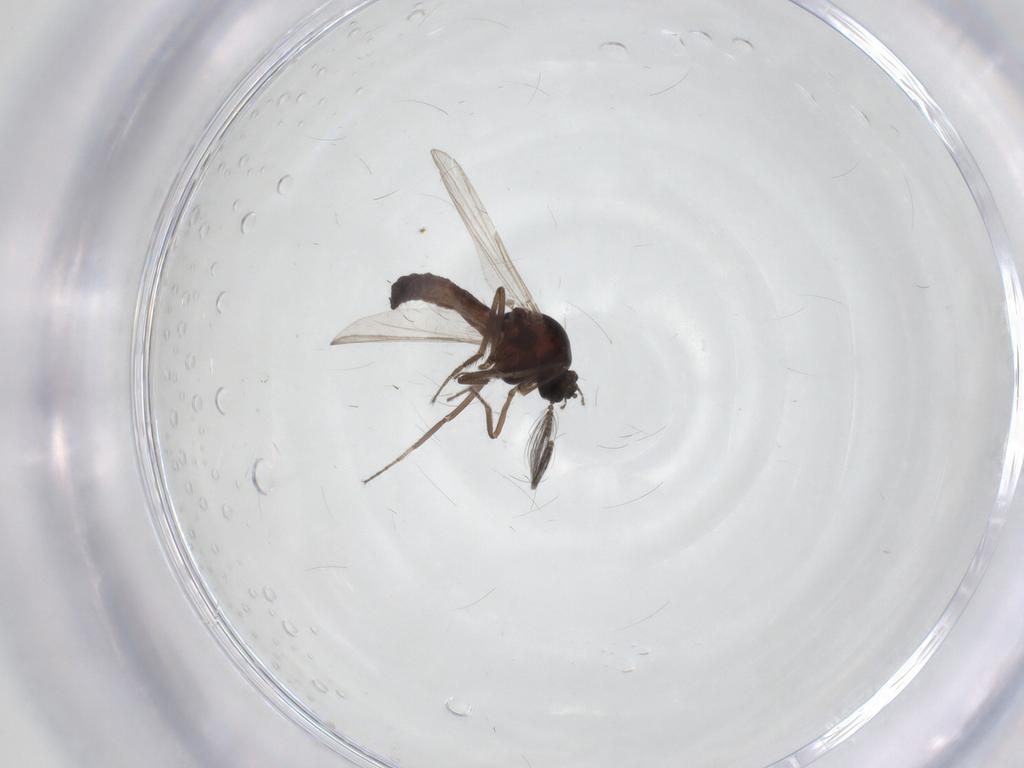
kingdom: Animalia
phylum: Arthropoda
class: Insecta
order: Diptera
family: Ceratopogonidae
